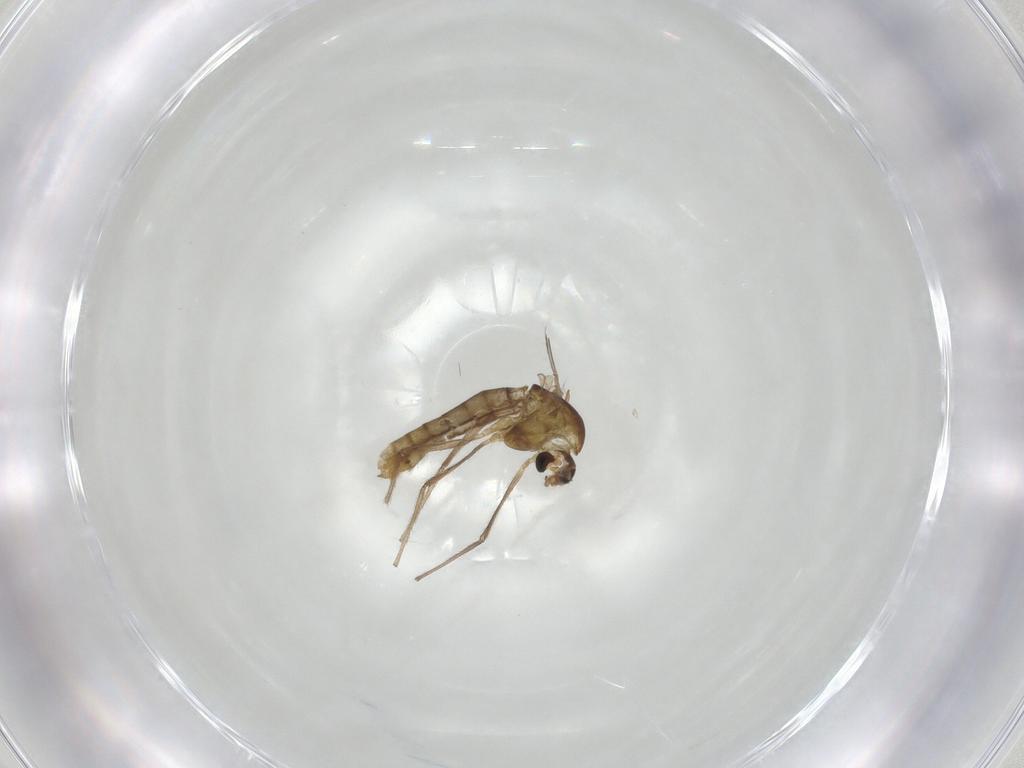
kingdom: Animalia
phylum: Arthropoda
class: Insecta
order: Diptera
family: Chironomidae
